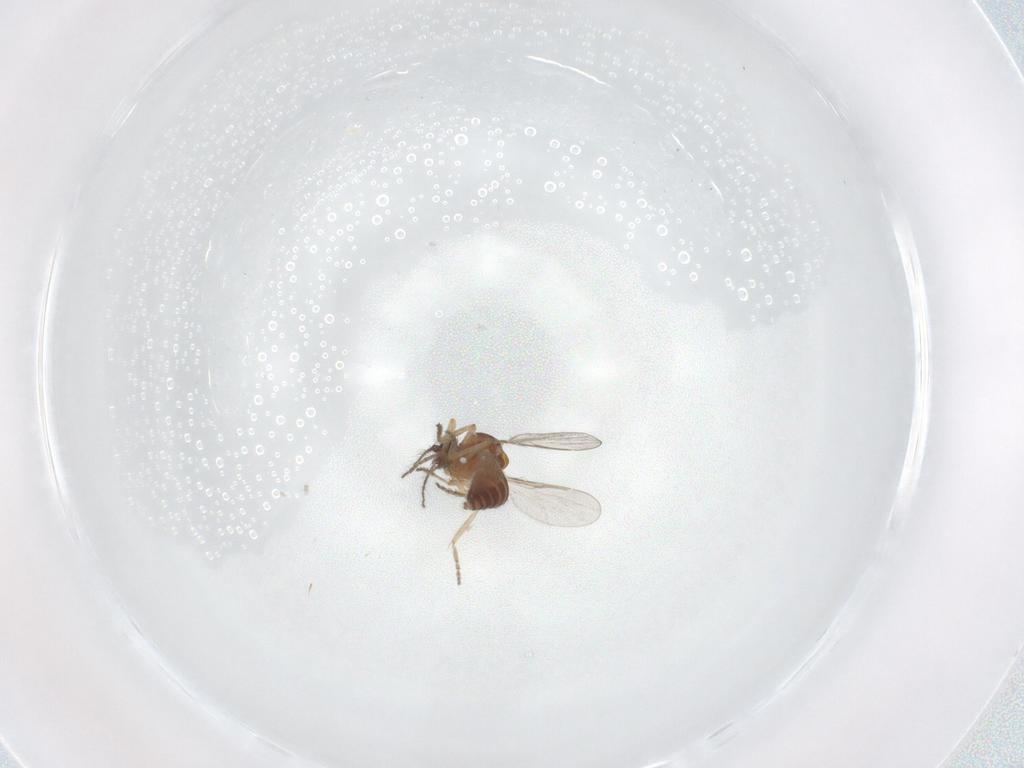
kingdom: Animalia
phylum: Arthropoda
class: Insecta
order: Diptera
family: Ceratopogonidae
